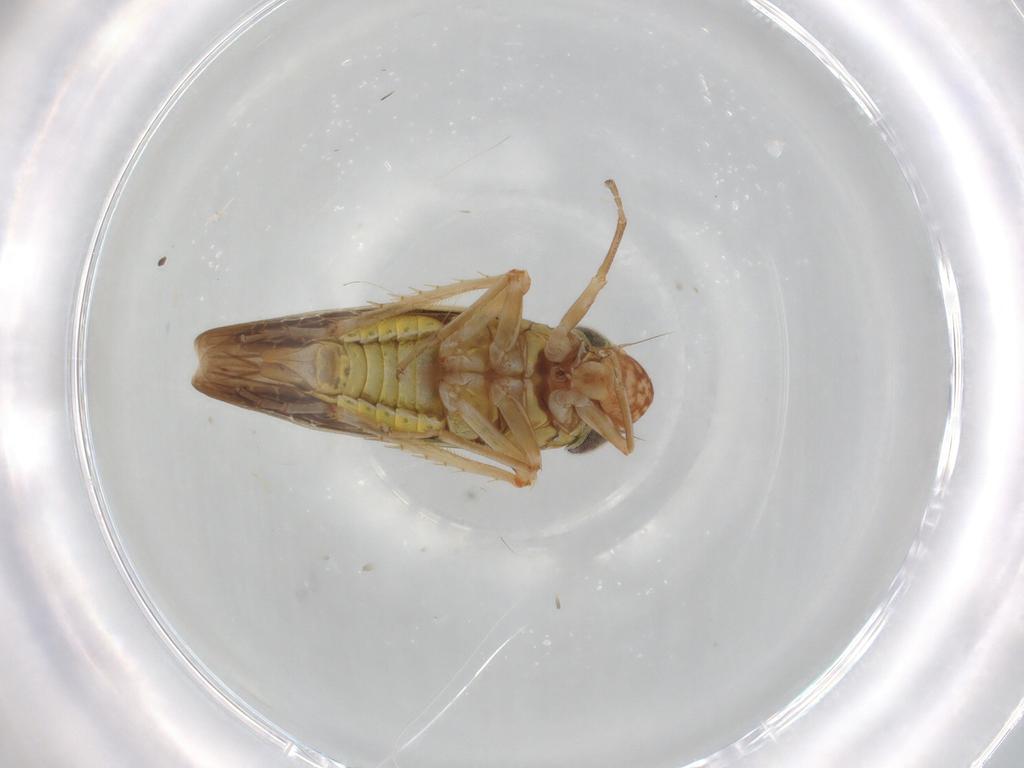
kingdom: Animalia
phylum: Arthropoda
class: Insecta
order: Hemiptera
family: Cicadellidae
